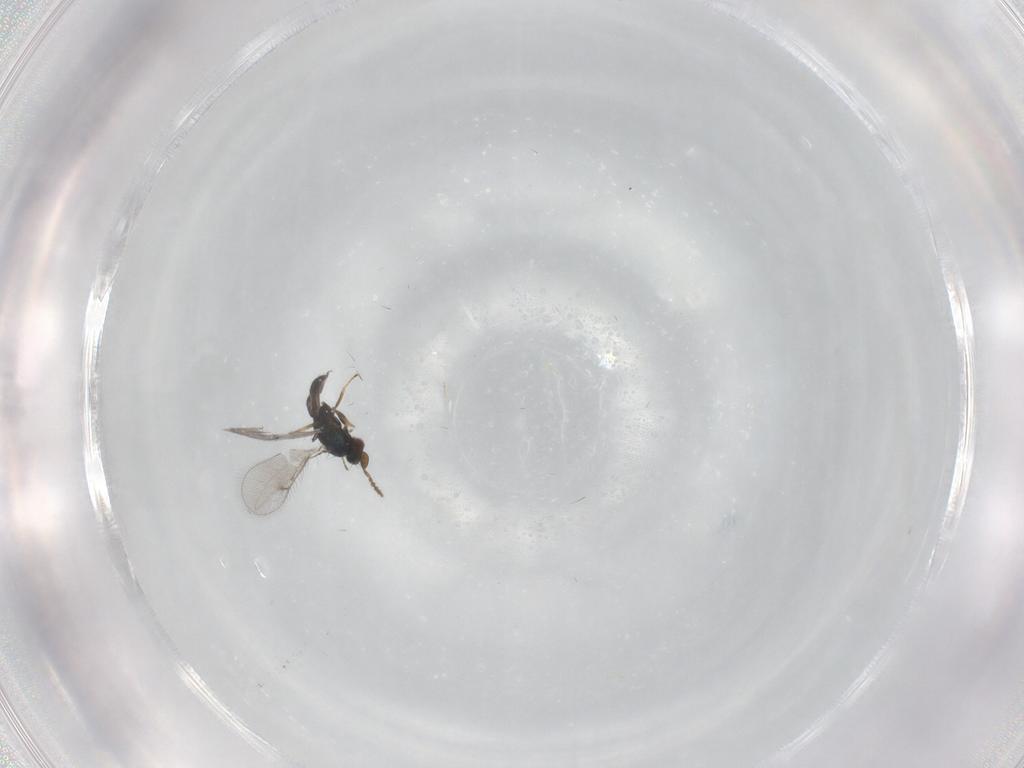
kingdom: Animalia
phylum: Arthropoda
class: Insecta
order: Hymenoptera
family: Eulophidae
